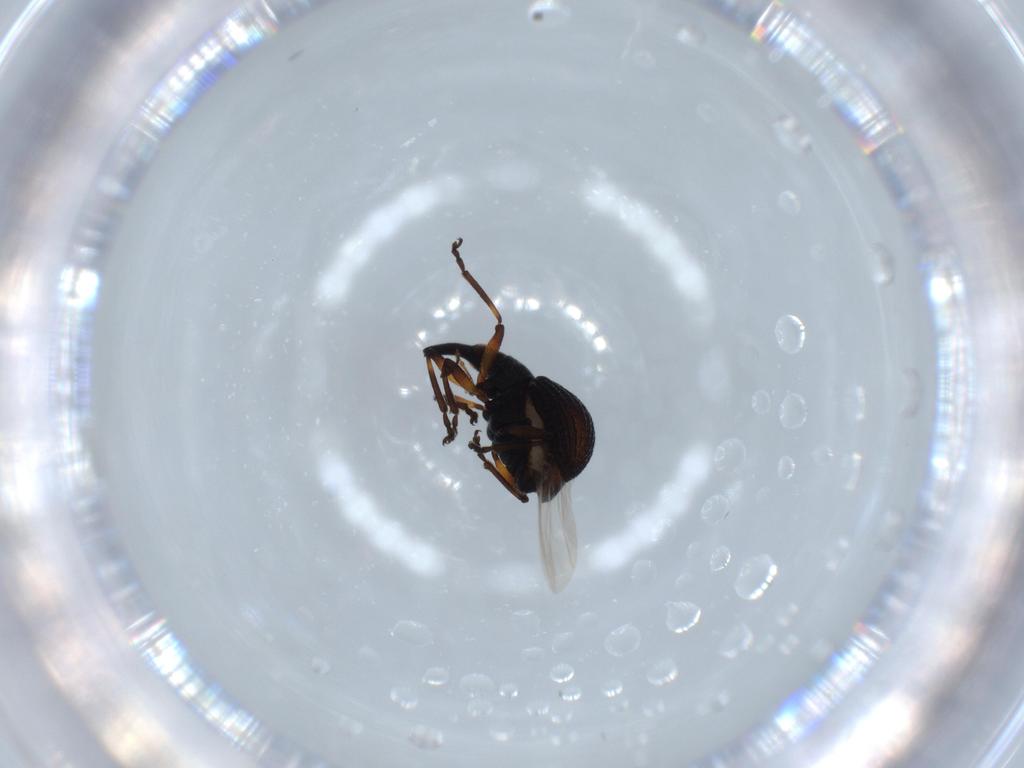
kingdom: Animalia
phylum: Arthropoda
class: Insecta
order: Coleoptera
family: Brentidae
